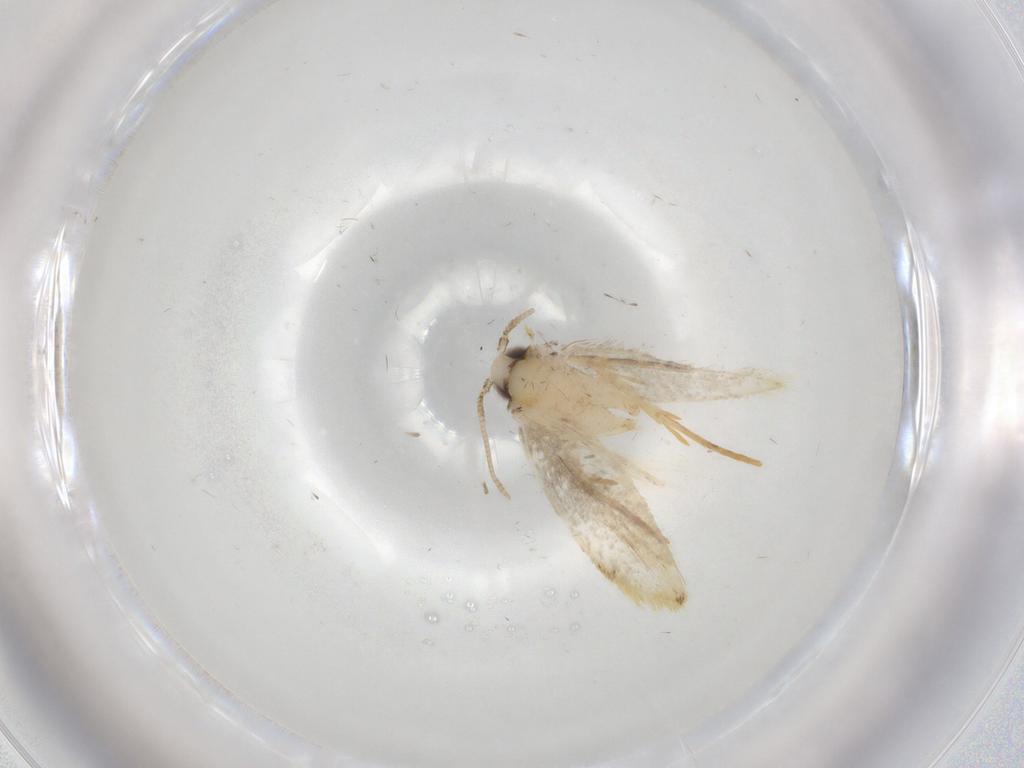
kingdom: Animalia
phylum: Arthropoda
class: Insecta
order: Lepidoptera
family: Tineidae
